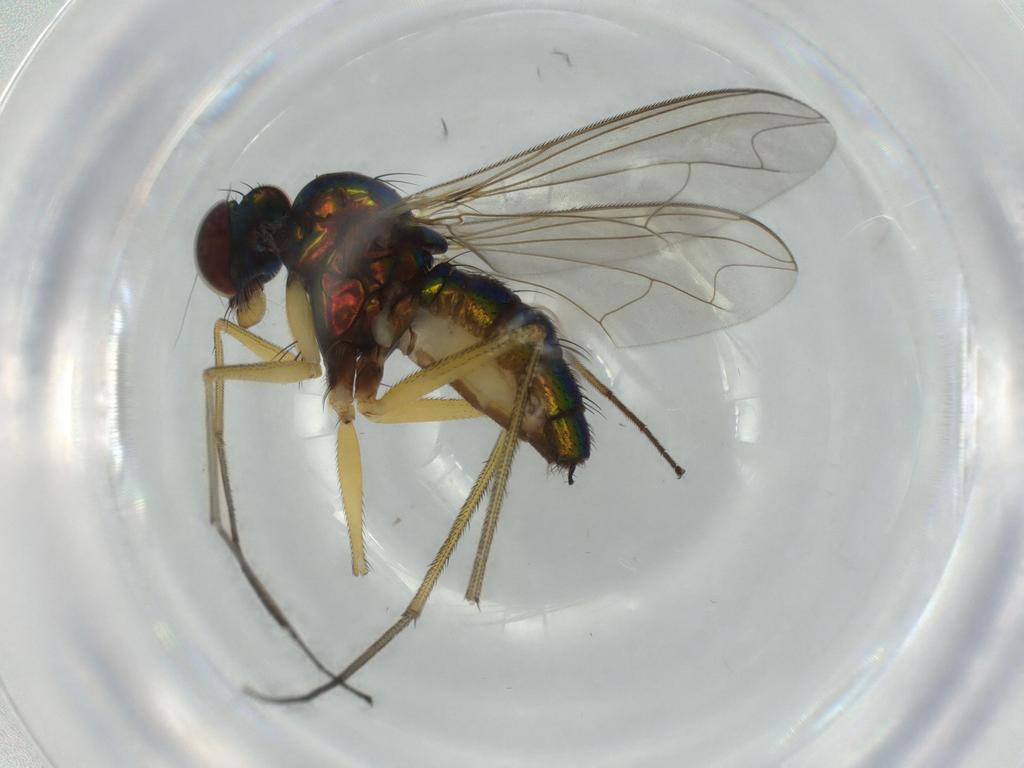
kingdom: Animalia
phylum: Arthropoda
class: Insecta
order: Diptera
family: Dolichopodidae
